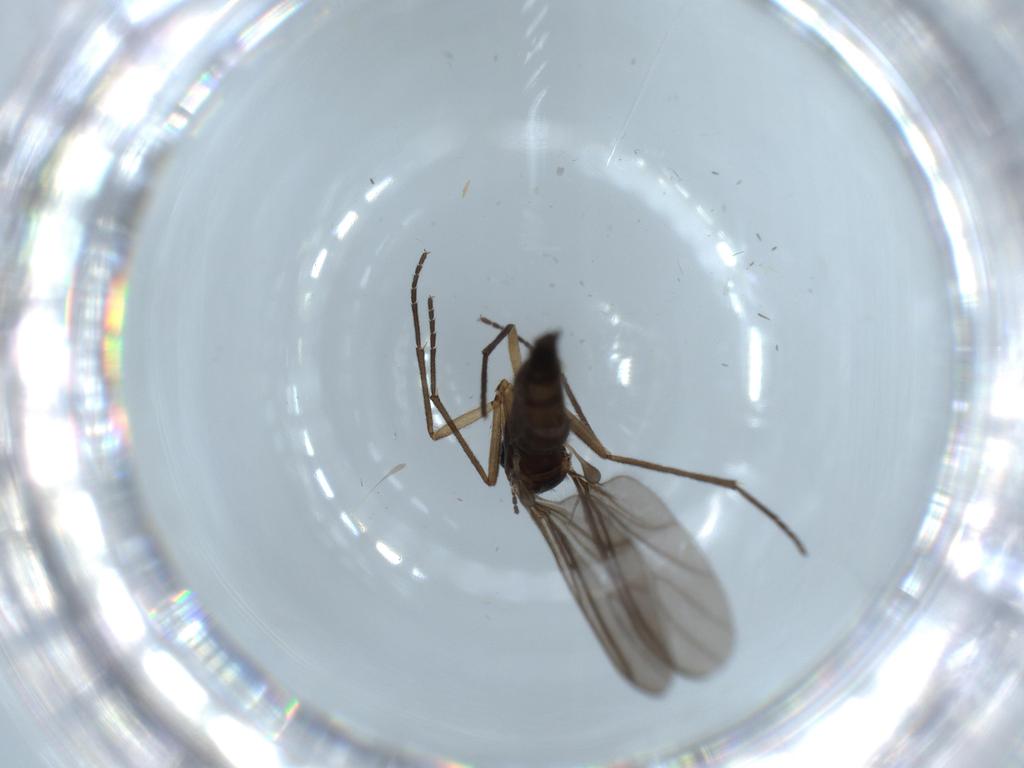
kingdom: Animalia
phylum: Arthropoda
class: Insecta
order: Diptera
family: Sciaridae
